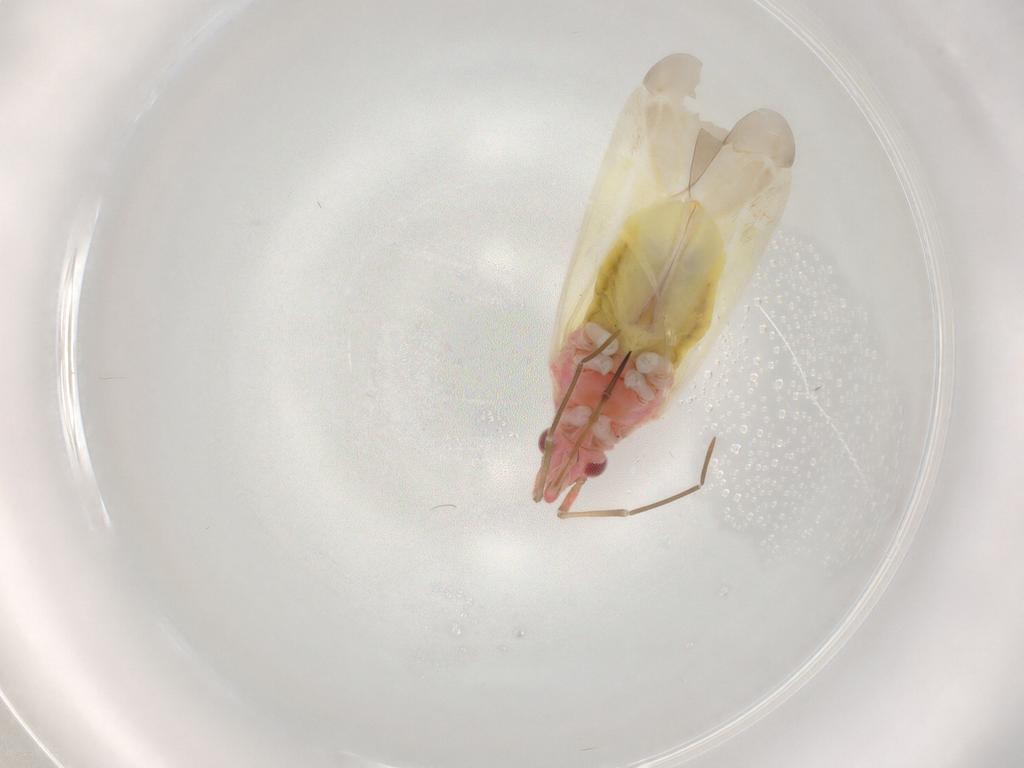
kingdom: Animalia
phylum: Arthropoda
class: Insecta
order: Hemiptera
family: Miridae
